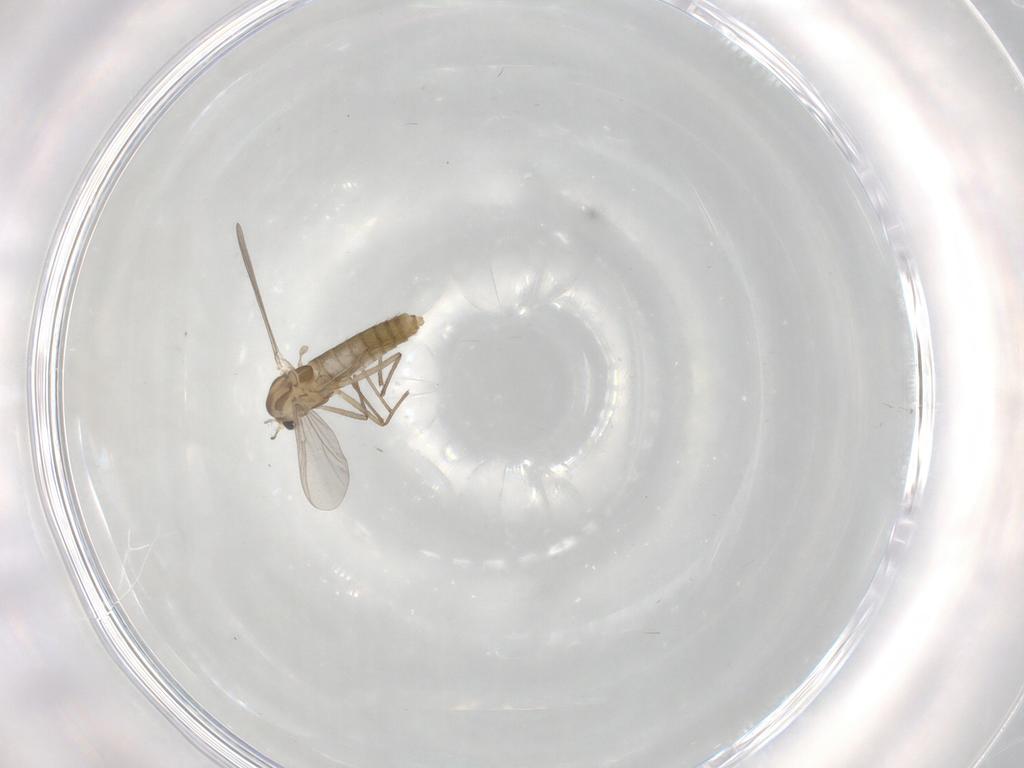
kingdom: Animalia
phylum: Arthropoda
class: Insecta
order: Diptera
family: Chironomidae
